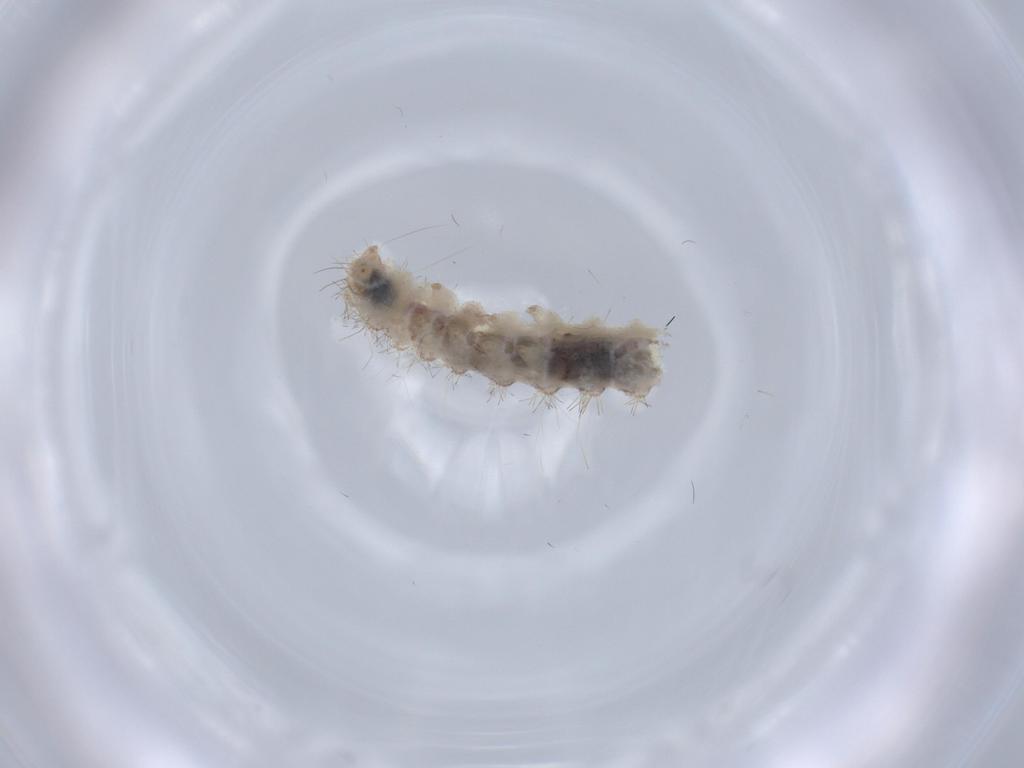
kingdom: Animalia
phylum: Arthropoda
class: Insecta
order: Lepidoptera
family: Erebidae
